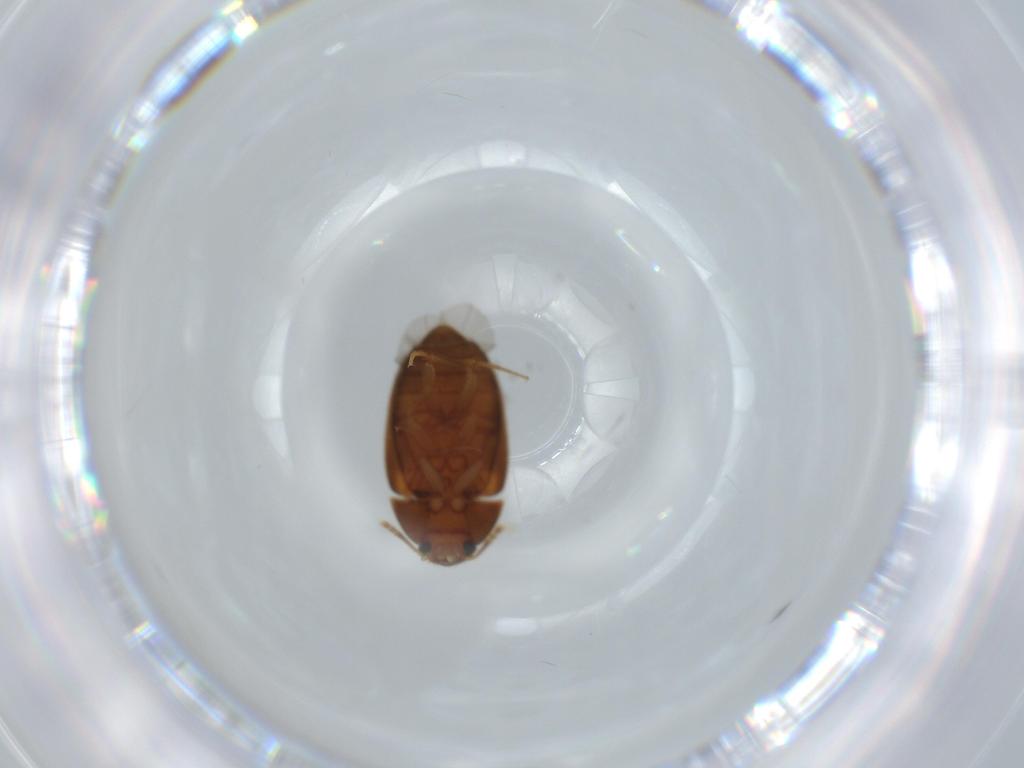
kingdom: Animalia
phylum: Arthropoda
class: Insecta
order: Coleoptera
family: Mycetophagidae
